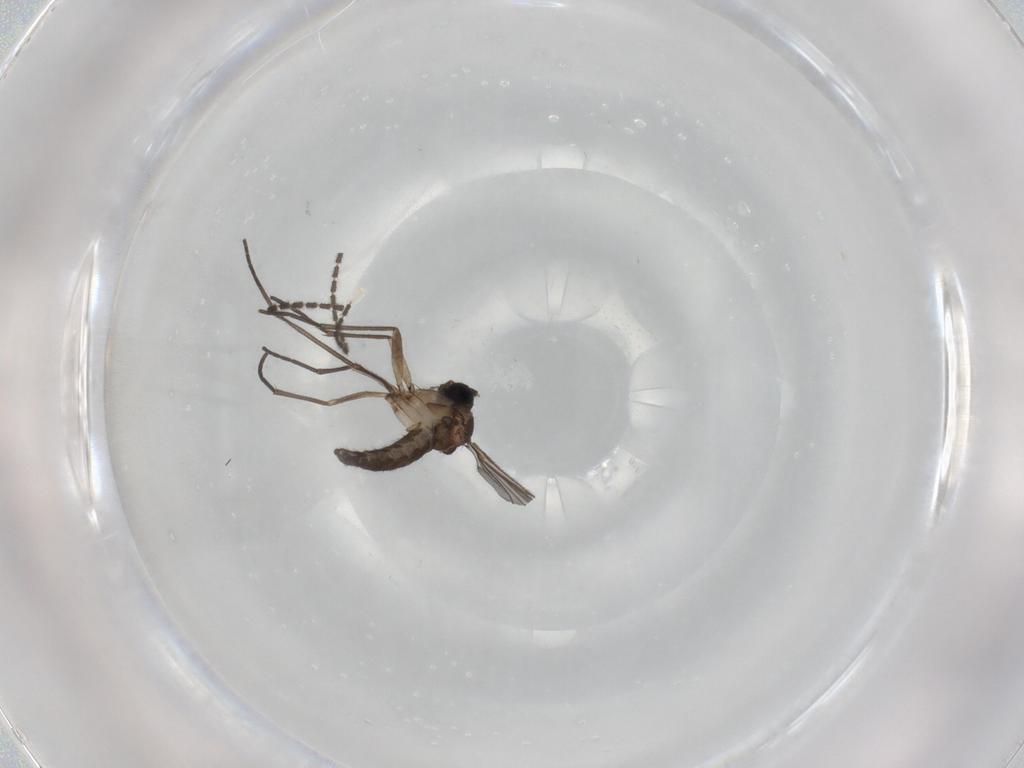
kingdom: Animalia
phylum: Arthropoda
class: Insecta
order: Diptera
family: Sciaridae
